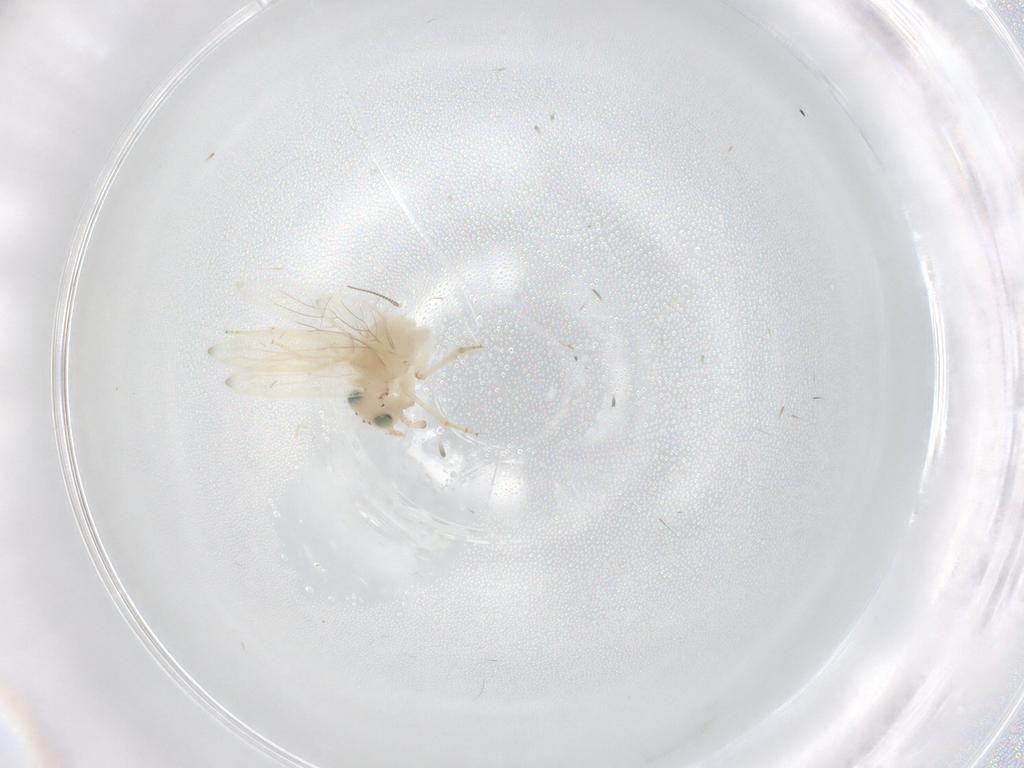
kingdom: Animalia
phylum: Arthropoda
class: Insecta
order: Psocodea
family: Lepidopsocidae
